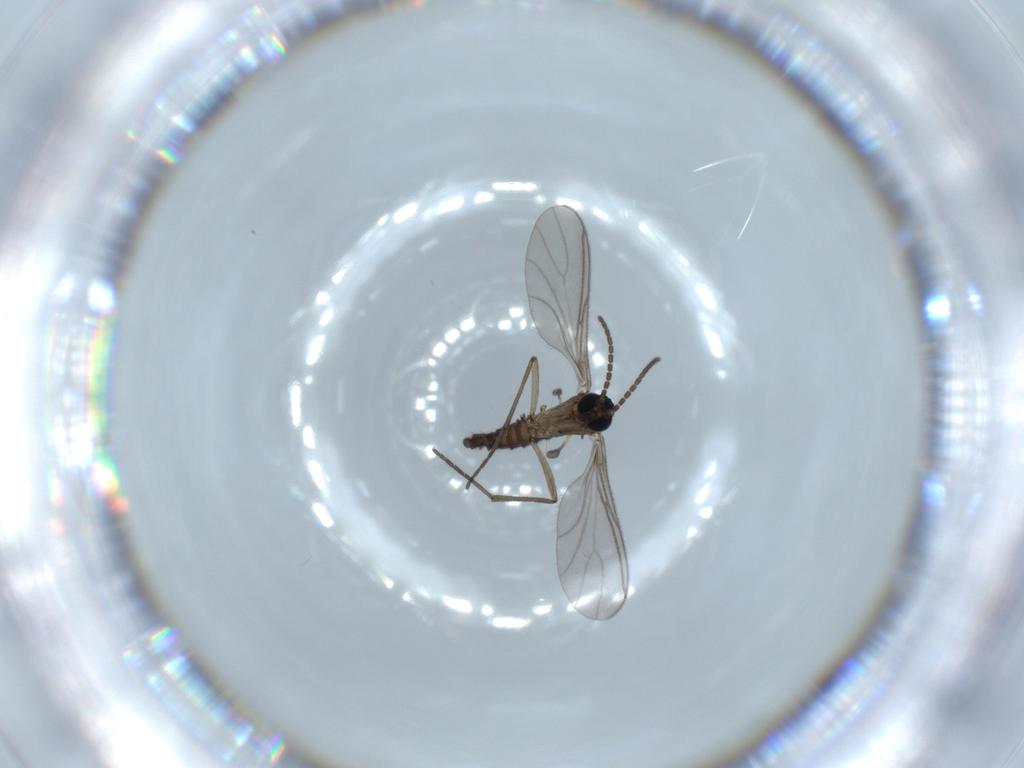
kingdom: Animalia
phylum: Arthropoda
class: Insecta
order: Diptera
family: Sciaridae
